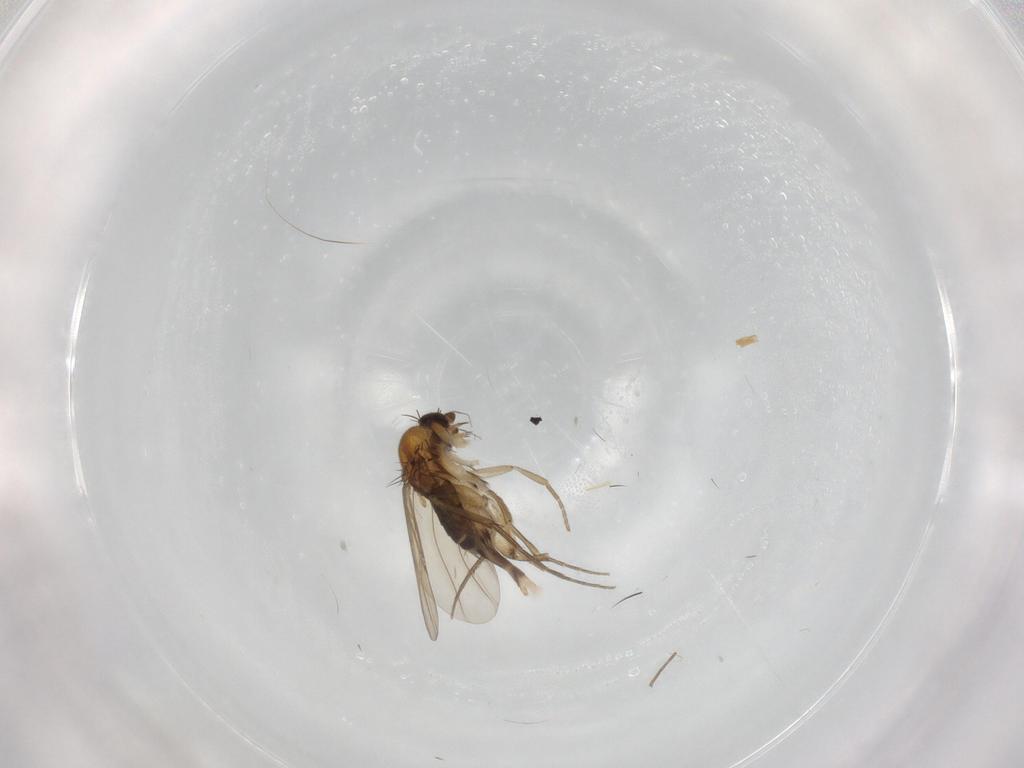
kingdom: Animalia
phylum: Arthropoda
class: Insecta
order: Diptera
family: Phoridae
